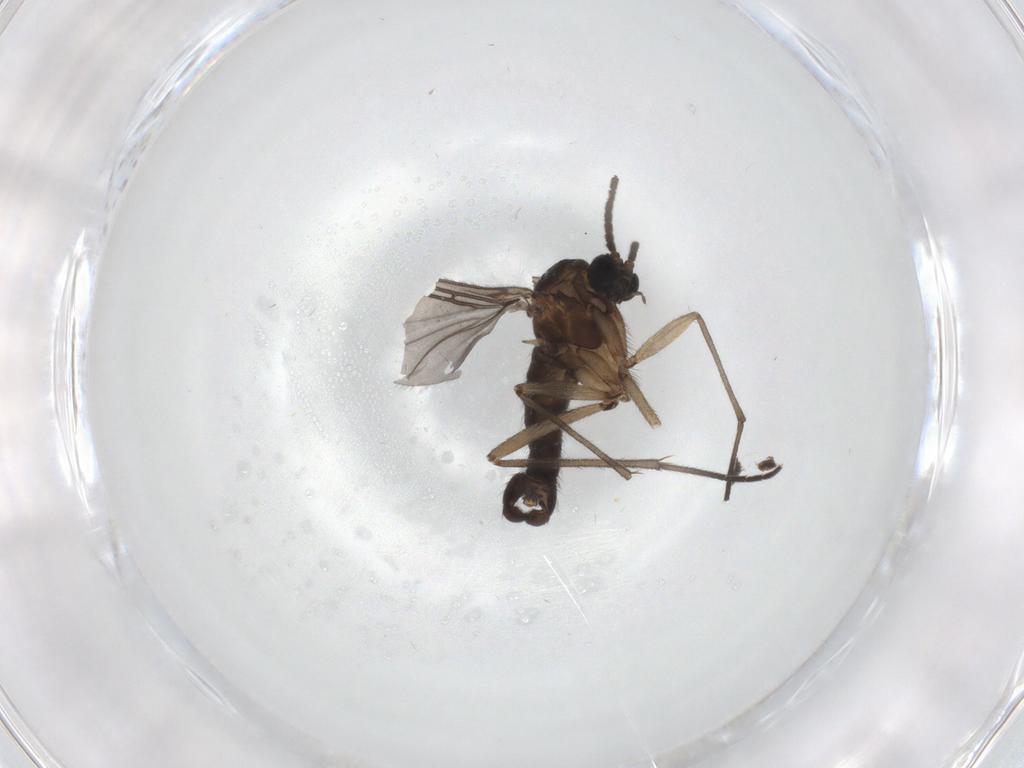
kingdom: Animalia
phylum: Arthropoda
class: Insecta
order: Diptera
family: Sciaridae
